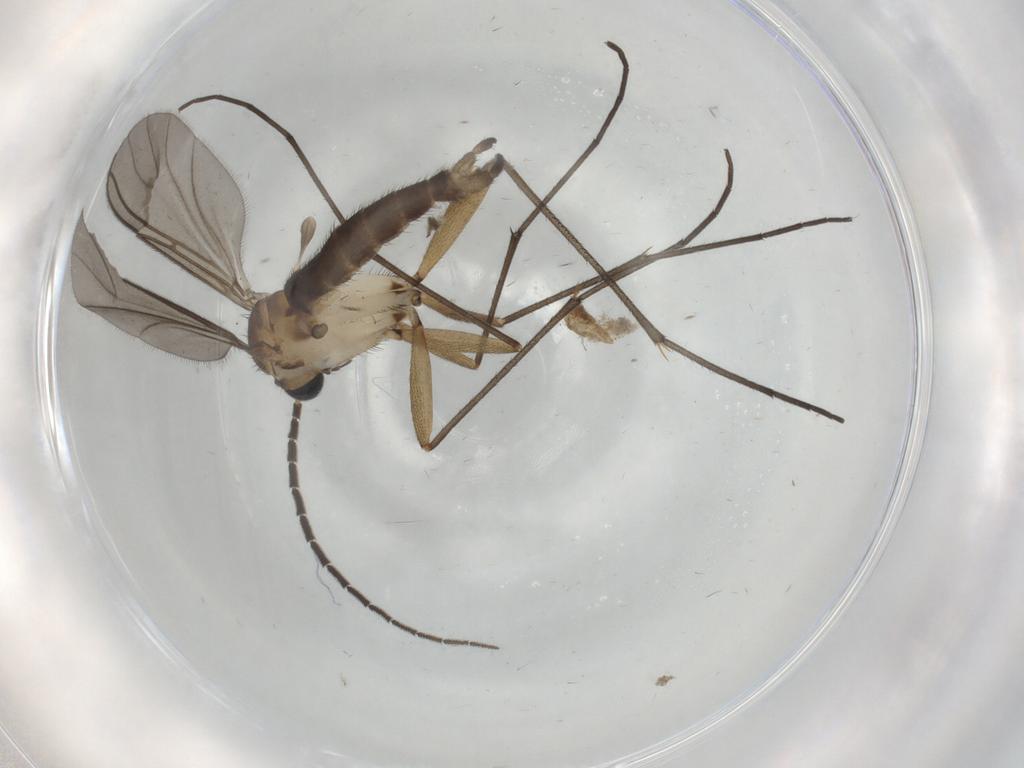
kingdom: Animalia
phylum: Arthropoda
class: Insecta
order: Diptera
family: Sciaridae
